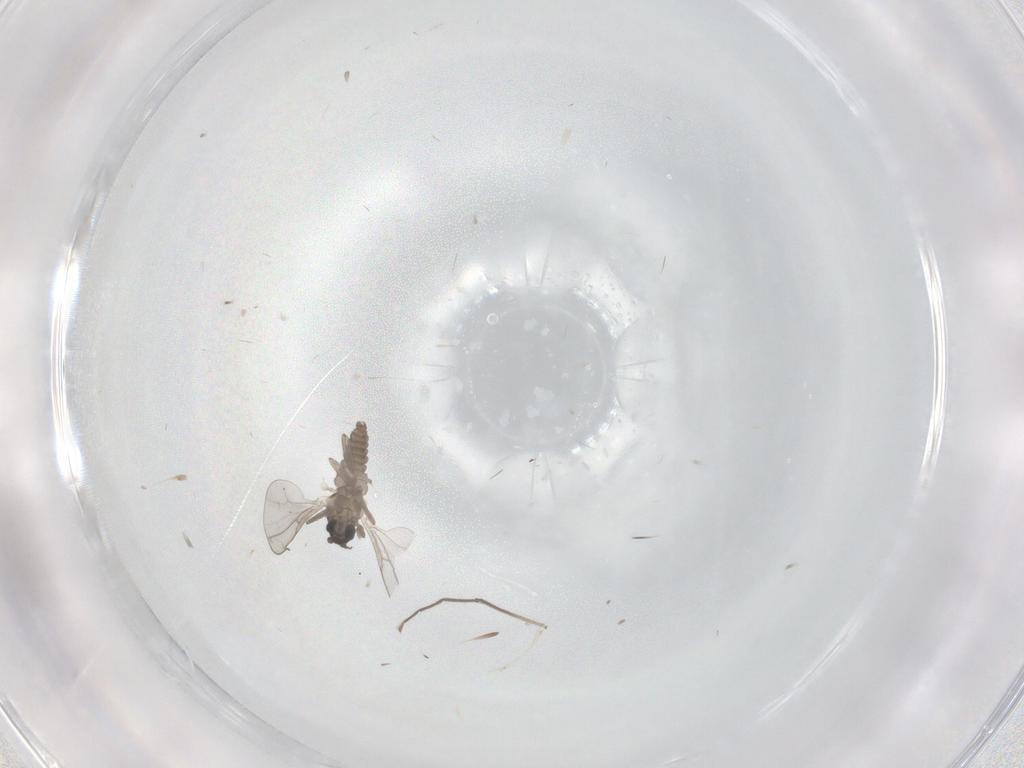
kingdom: Animalia
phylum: Arthropoda
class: Insecta
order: Diptera
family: Cecidomyiidae
